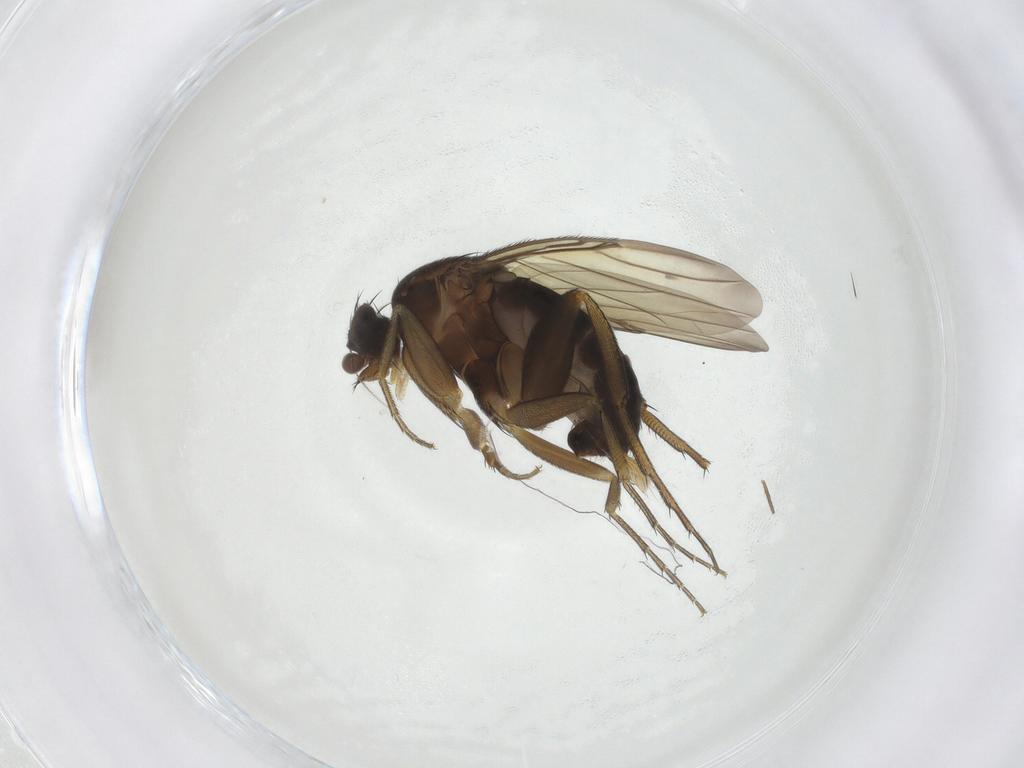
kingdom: Animalia
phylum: Arthropoda
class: Insecta
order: Diptera
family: Phoridae
